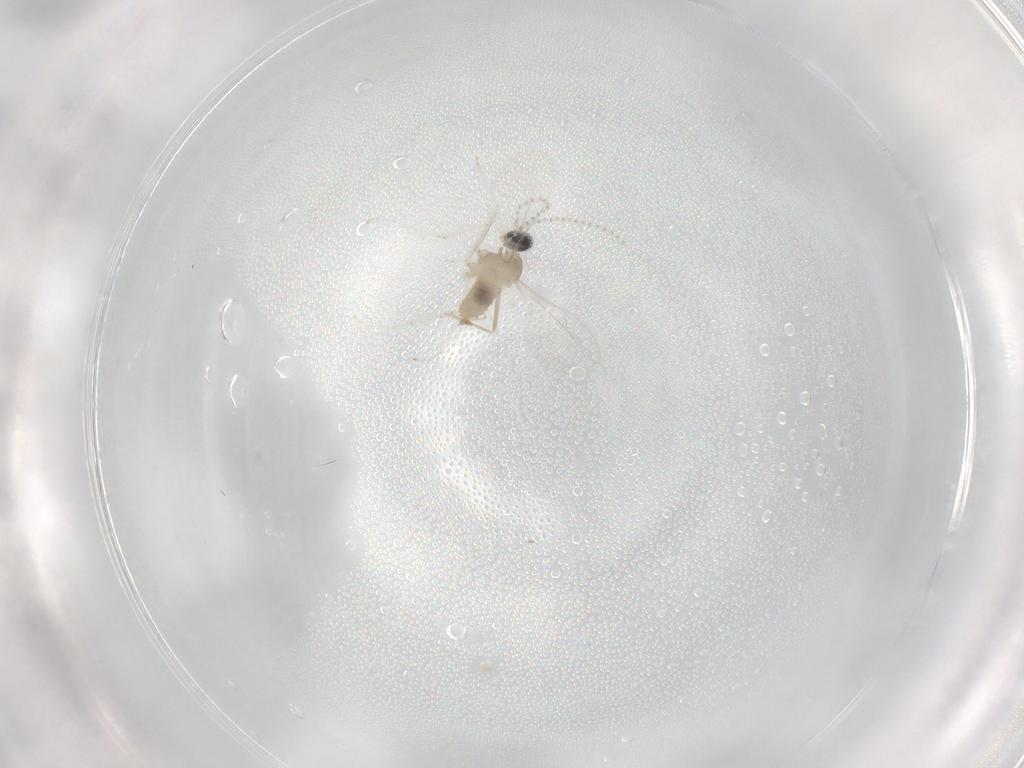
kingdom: Animalia
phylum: Arthropoda
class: Insecta
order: Diptera
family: Cecidomyiidae
